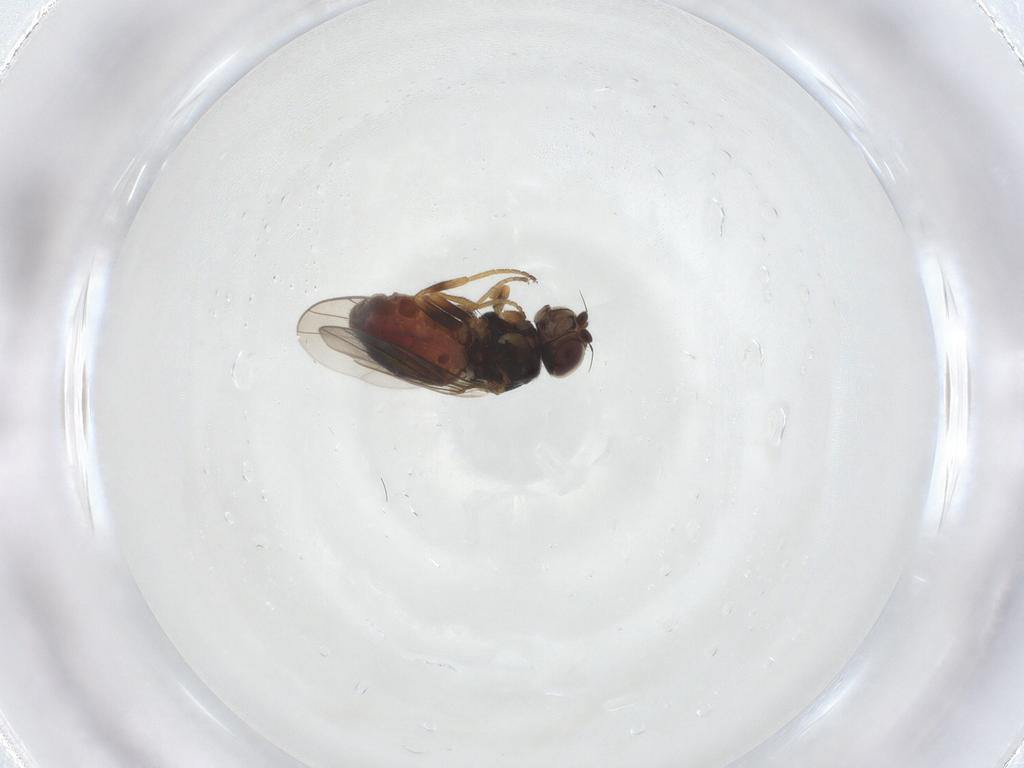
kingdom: Animalia
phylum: Arthropoda
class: Insecta
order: Diptera
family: Chloropidae
